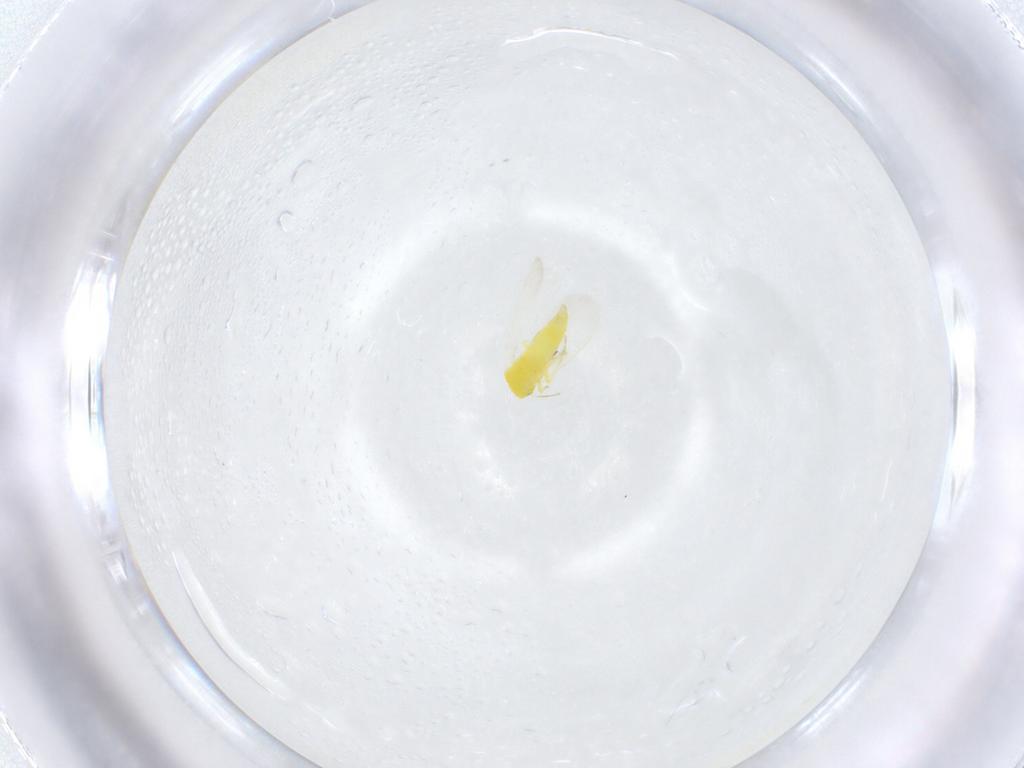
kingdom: Animalia
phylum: Arthropoda
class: Insecta
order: Hemiptera
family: Aleyrodidae
